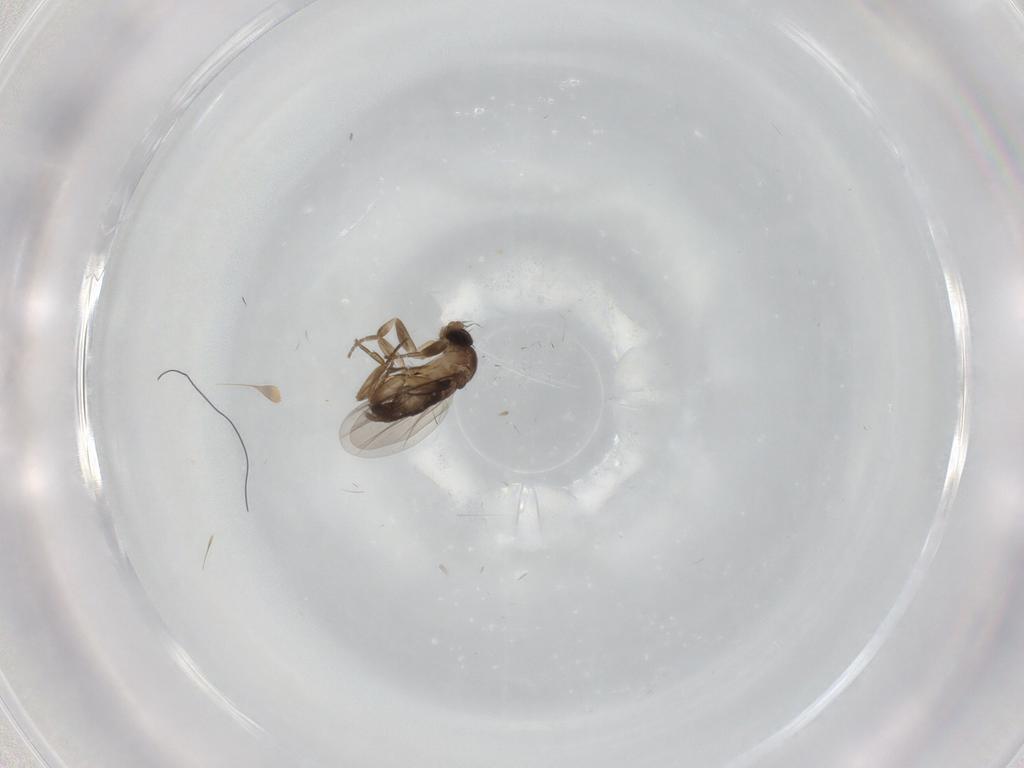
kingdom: Animalia
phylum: Arthropoda
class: Insecta
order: Diptera
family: Phoridae
